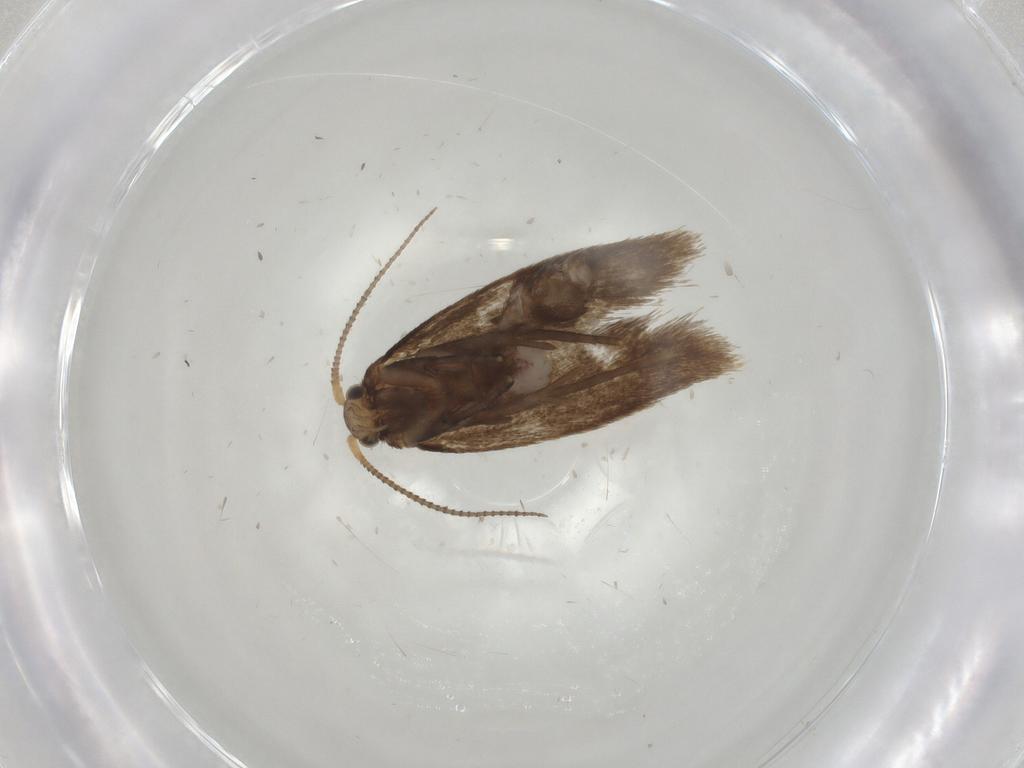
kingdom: Animalia
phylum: Arthropoda
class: Insecta
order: Lepidoptera
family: Dryadaulidae
